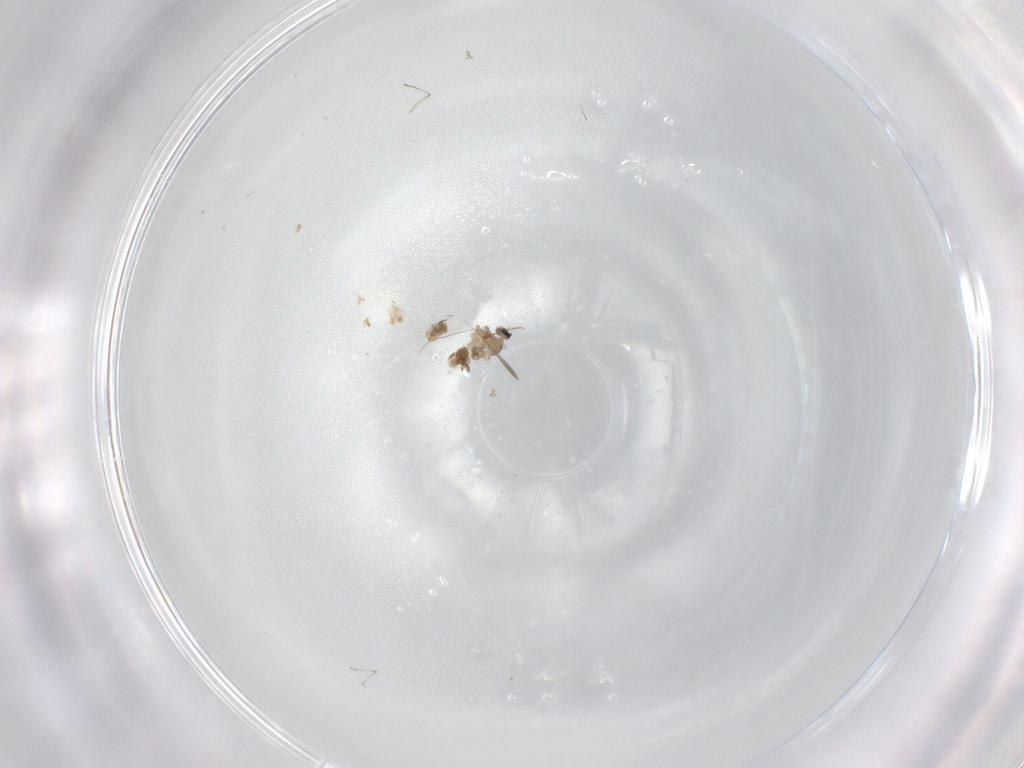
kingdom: Animalia
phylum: Arthropoda
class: Insecta
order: Diptera
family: Cecidomyiidae
